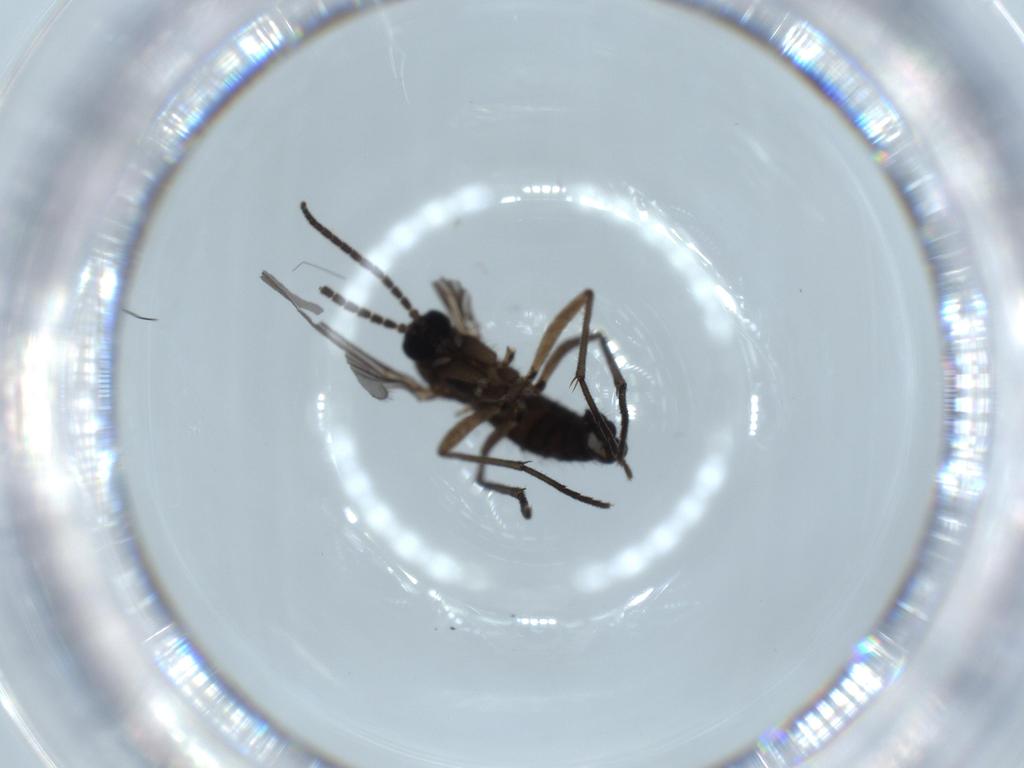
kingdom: Animalia
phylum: Arthropoda
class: Insecta
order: Diptera
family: Sciaridae
